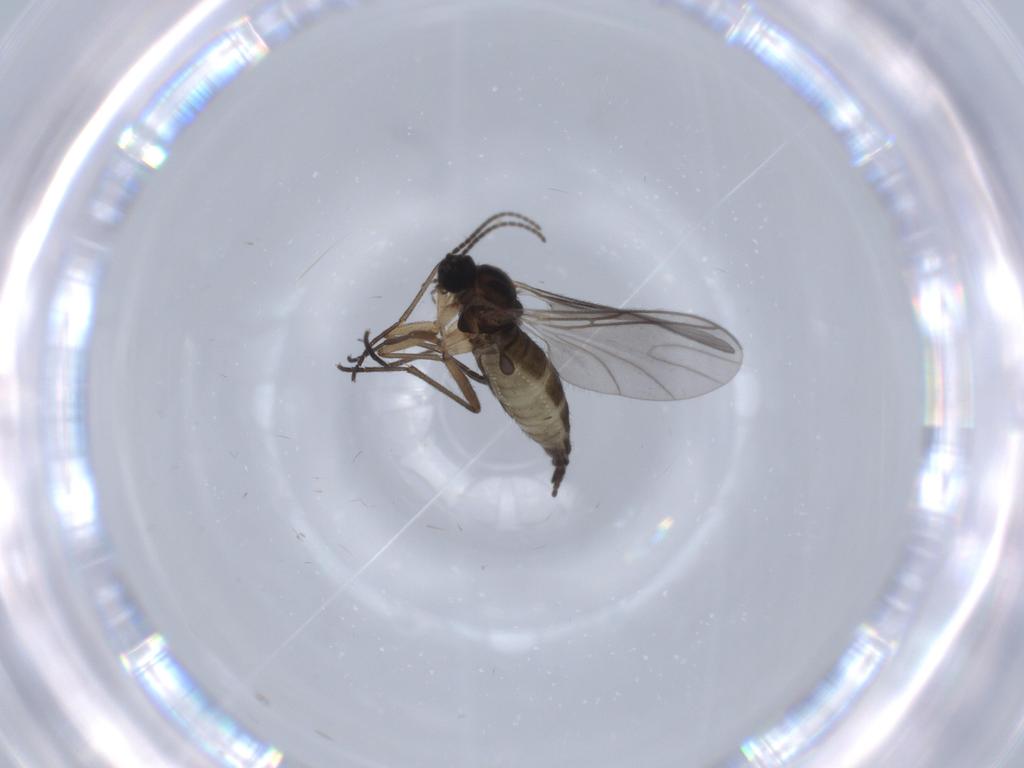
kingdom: Animalia
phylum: Arthropoda
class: Insecta
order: Diptera
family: Sciaridae
